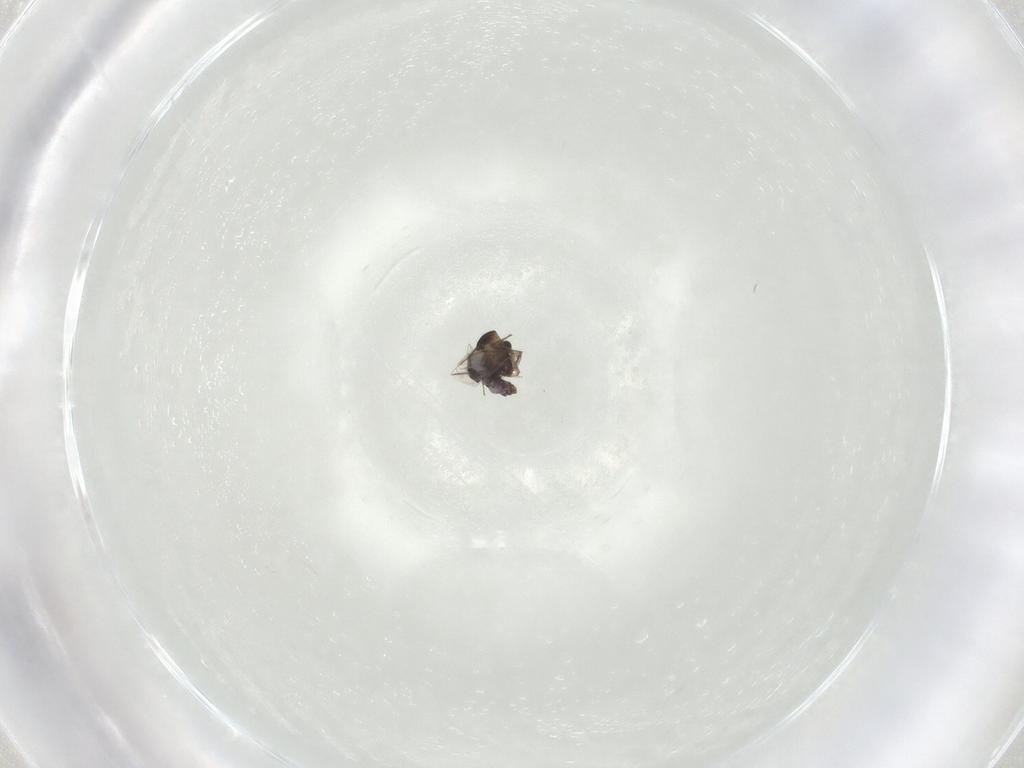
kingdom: Animalia
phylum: Arthropoda
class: Insecta
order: Diptera
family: Chironomidae
